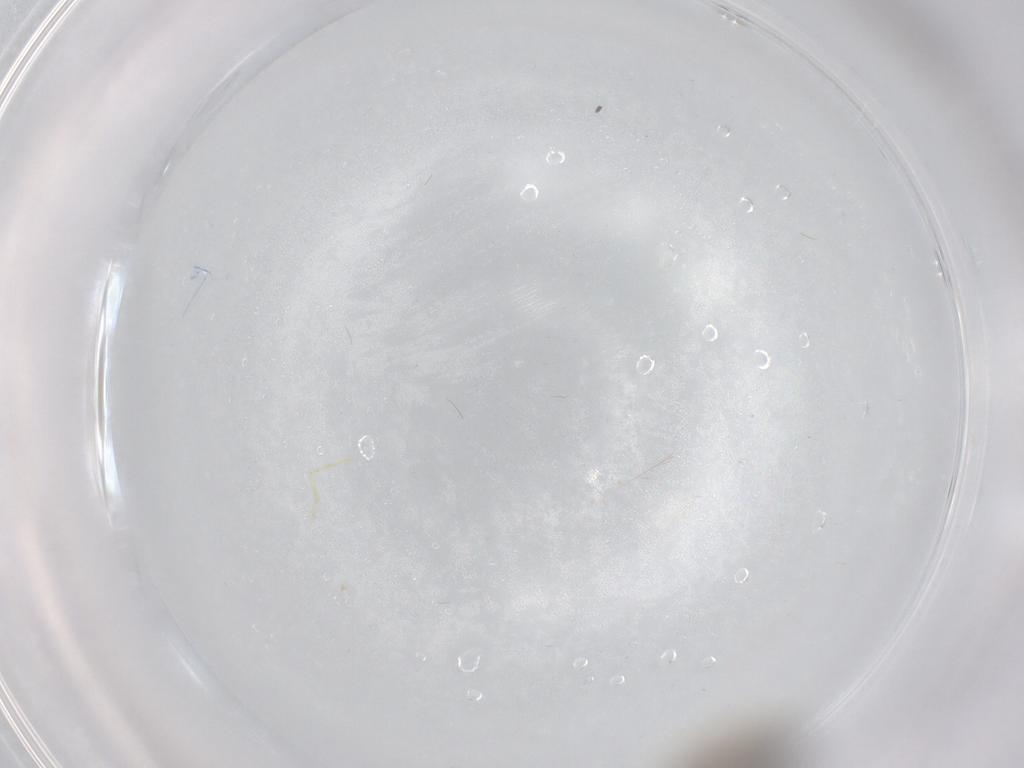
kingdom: Animalia
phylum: Arthropoda
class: Insecta
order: Diptera
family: Chironomidae
